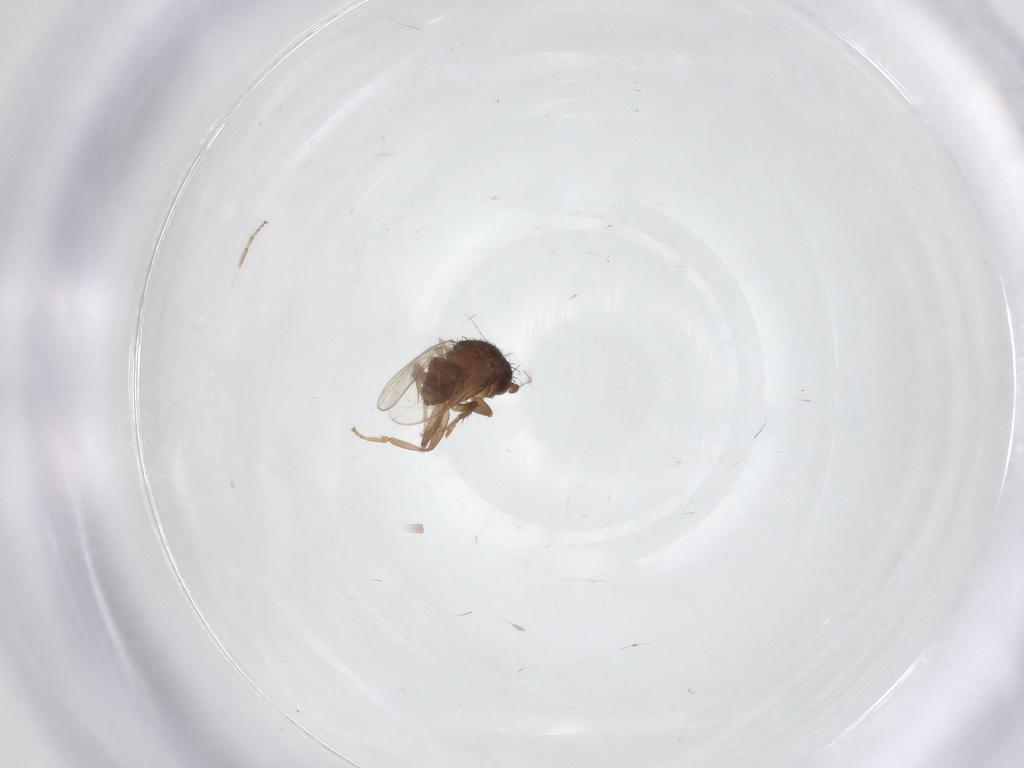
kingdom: Animalia
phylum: Arthropoda
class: Insecta
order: Diptera
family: Sphaeroceridae
